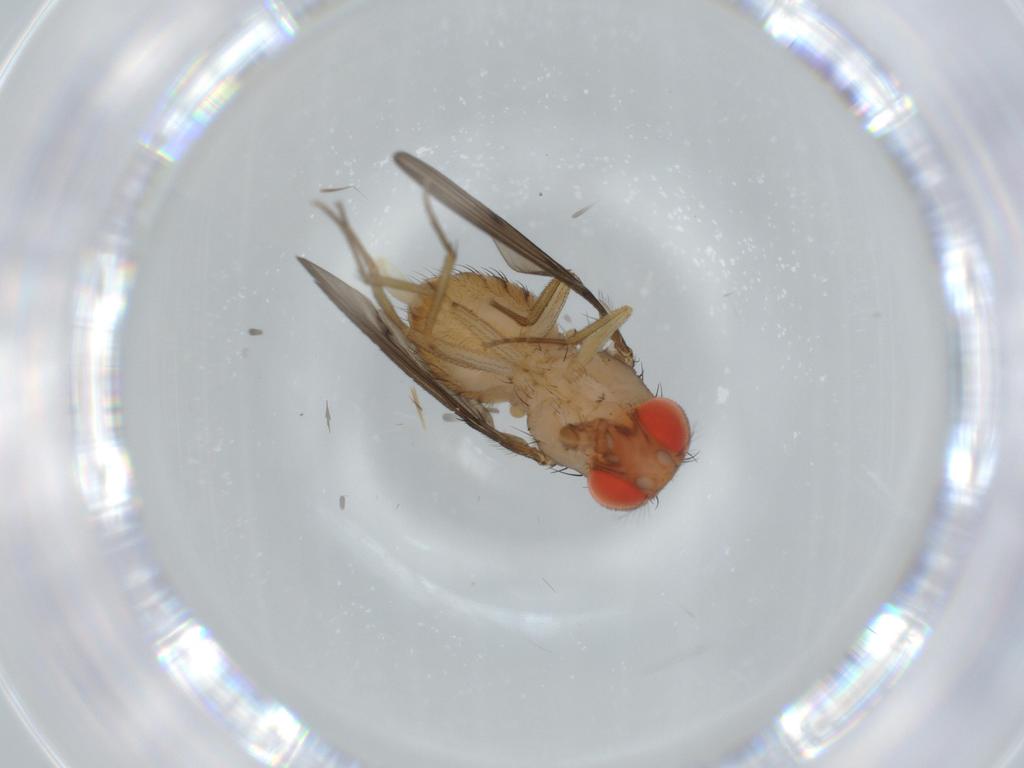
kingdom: Animalia
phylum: Arthropoda
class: Insecta
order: Diptera
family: Drosophilidae
